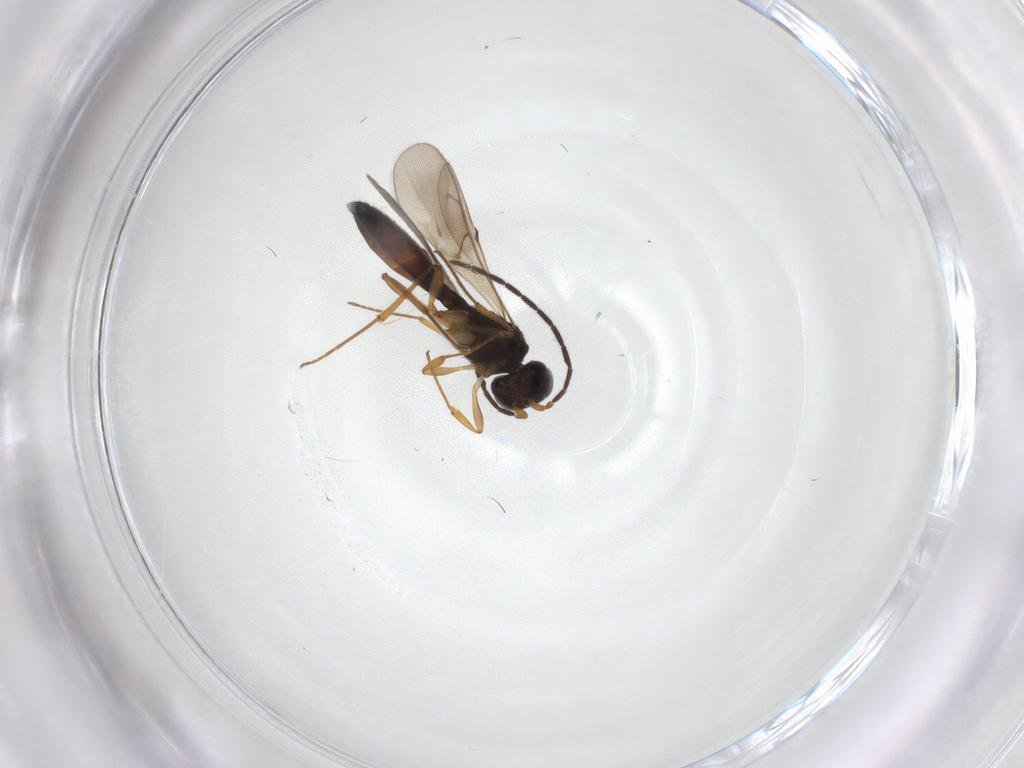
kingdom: Animalia
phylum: Arthropoda
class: Insecta
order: Hymenoptera
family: Scelionidae
